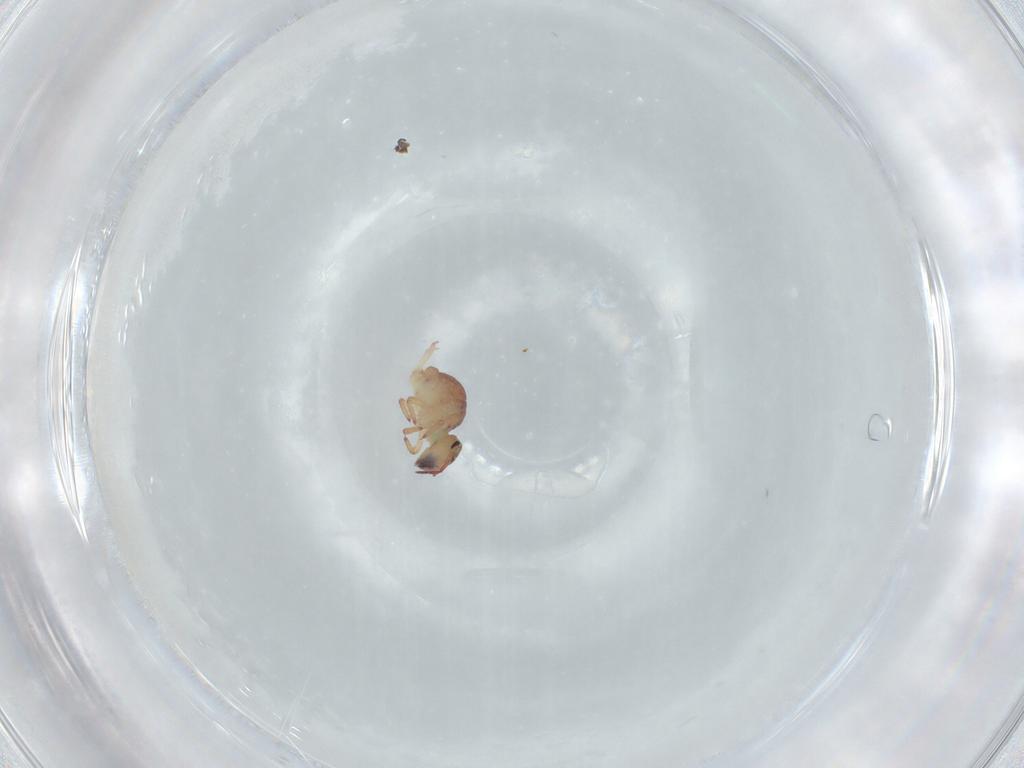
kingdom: Animalia
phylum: Arthropoda
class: Collembola
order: Symphypleona
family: Sminthurididae
